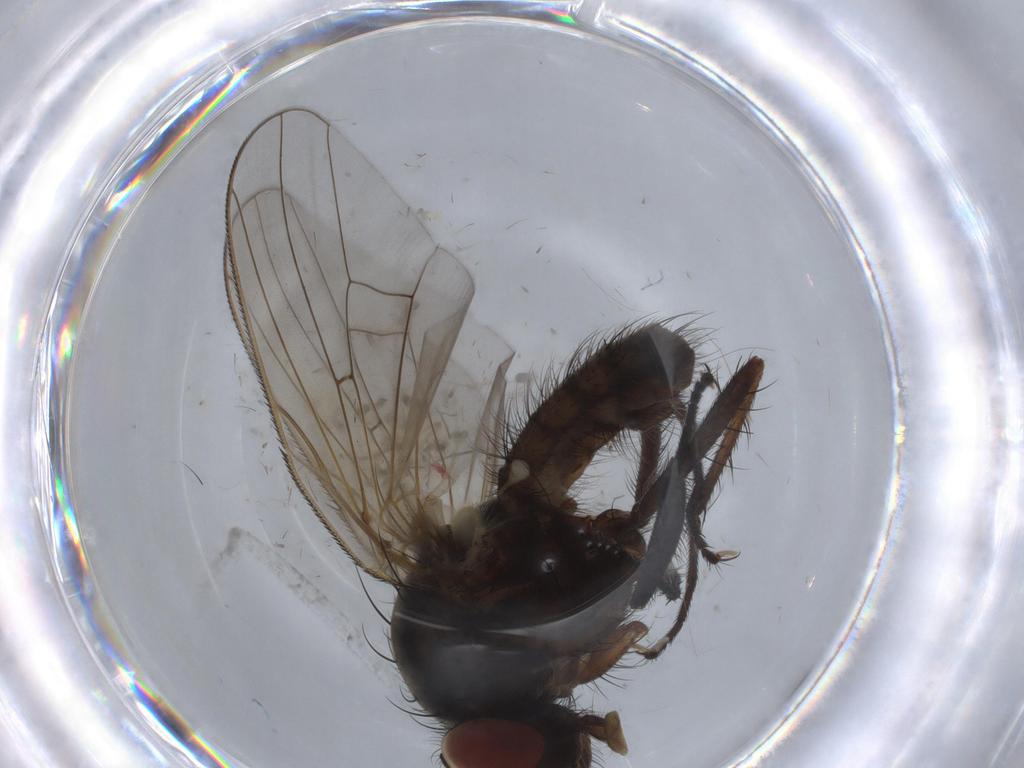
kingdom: Animalia
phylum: Arthropoda
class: Insecta
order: Diptera
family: Anthomyiidae
